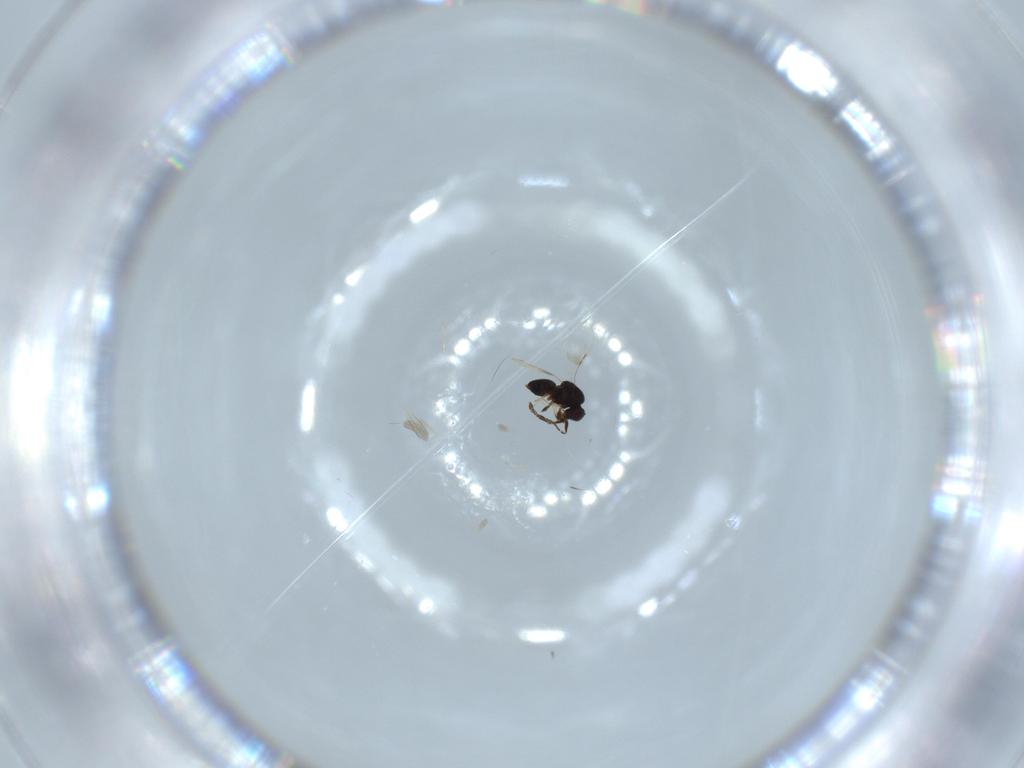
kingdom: Animalia
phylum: Arthropoda
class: Insecta
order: Hymenoptera
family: Ceraphronidae
